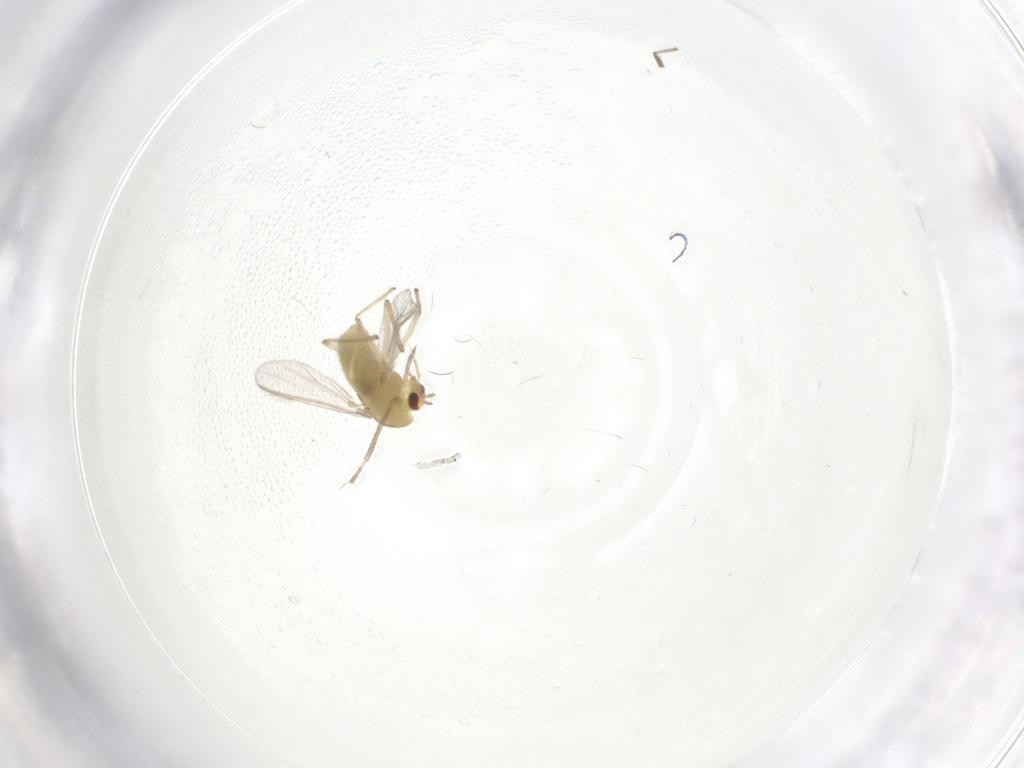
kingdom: Animalia
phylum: Arthropoda
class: Insecta
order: Diptera
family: Chironomidae
